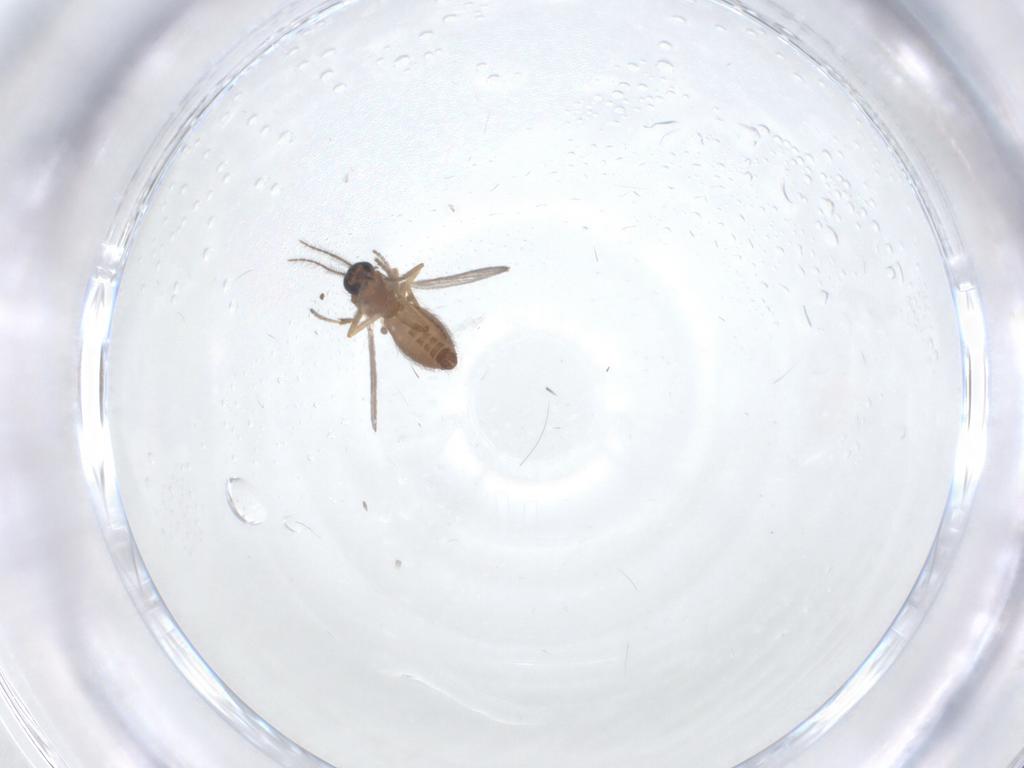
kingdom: Animalia
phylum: Arthropoda
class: Insecta
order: Diptera
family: Ceratopogonidae
